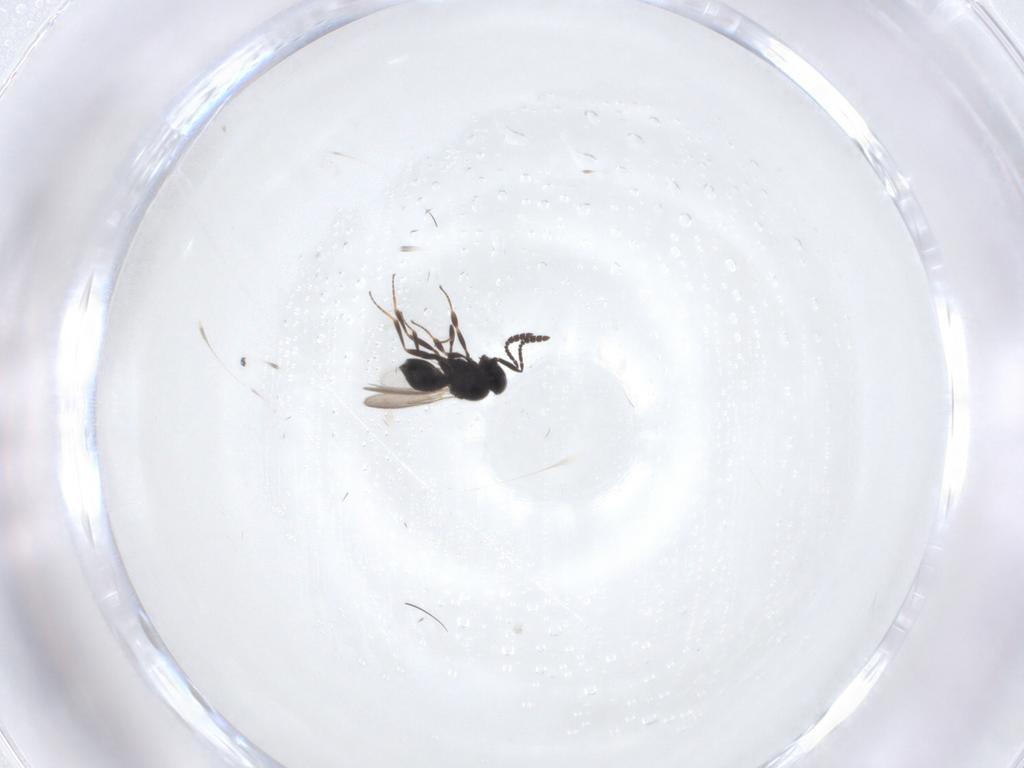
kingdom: Animalia
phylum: Arthropoda
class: Insecta
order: Hymenoptera
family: Scelionidae
